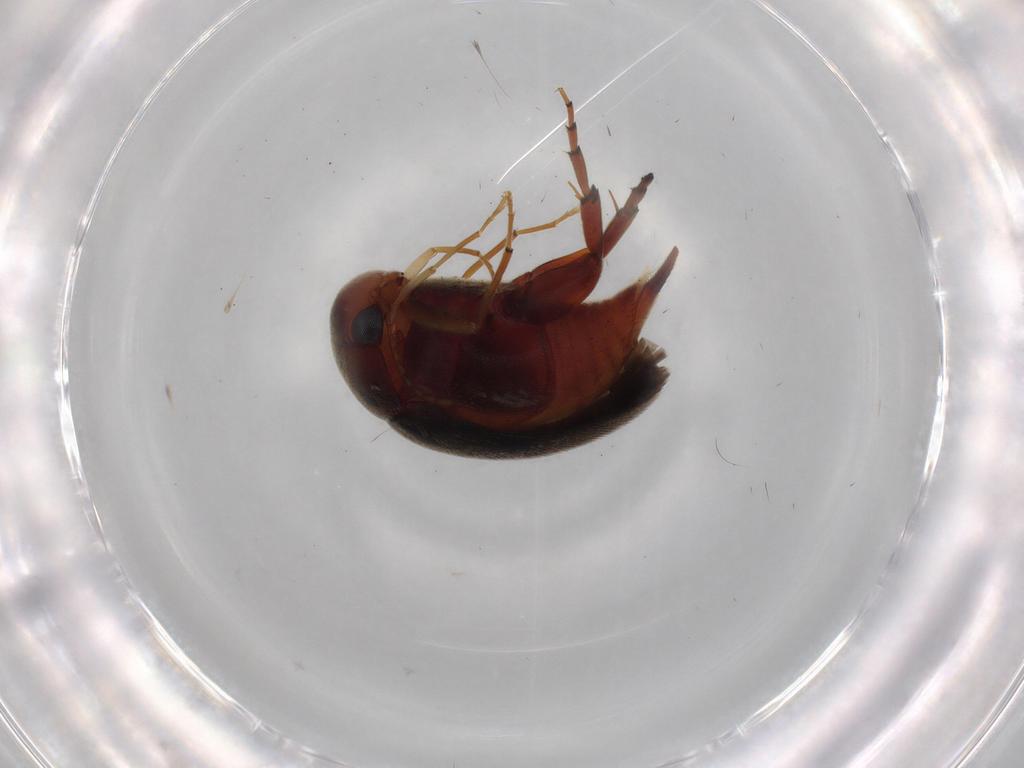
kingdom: Animalia
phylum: Arthropoda
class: Insecta
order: Coleoptera
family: Mordellidae
